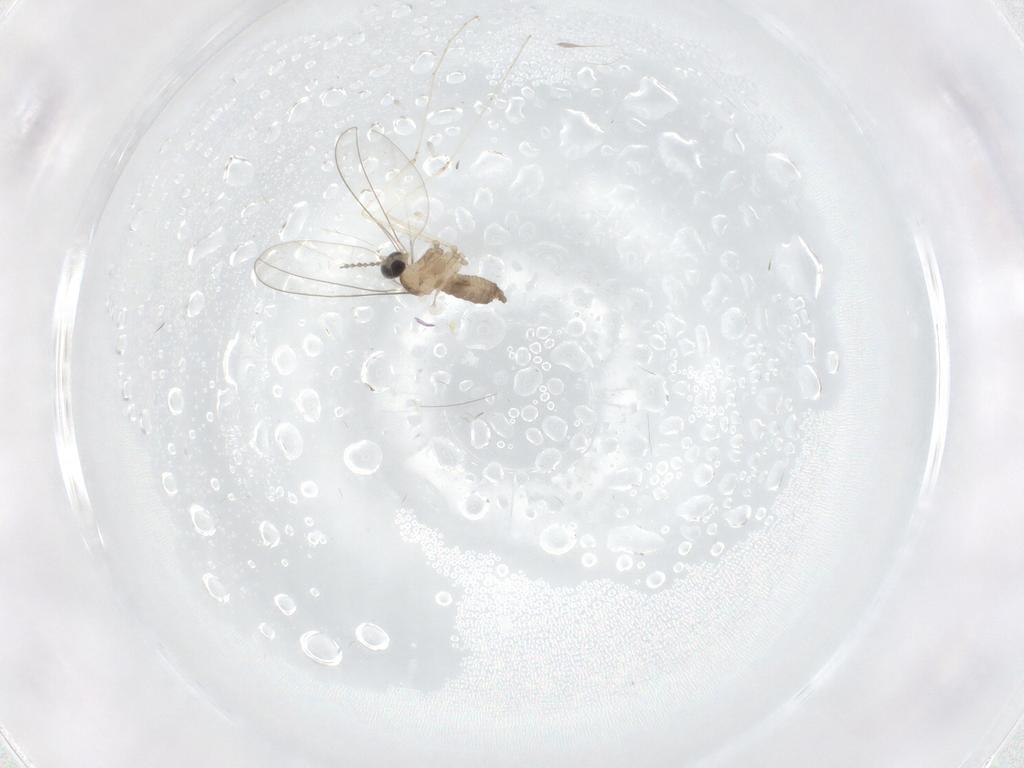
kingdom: Animalia
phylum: Arthropoda
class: Insecta
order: Diptera
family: Cecidomyiidae
